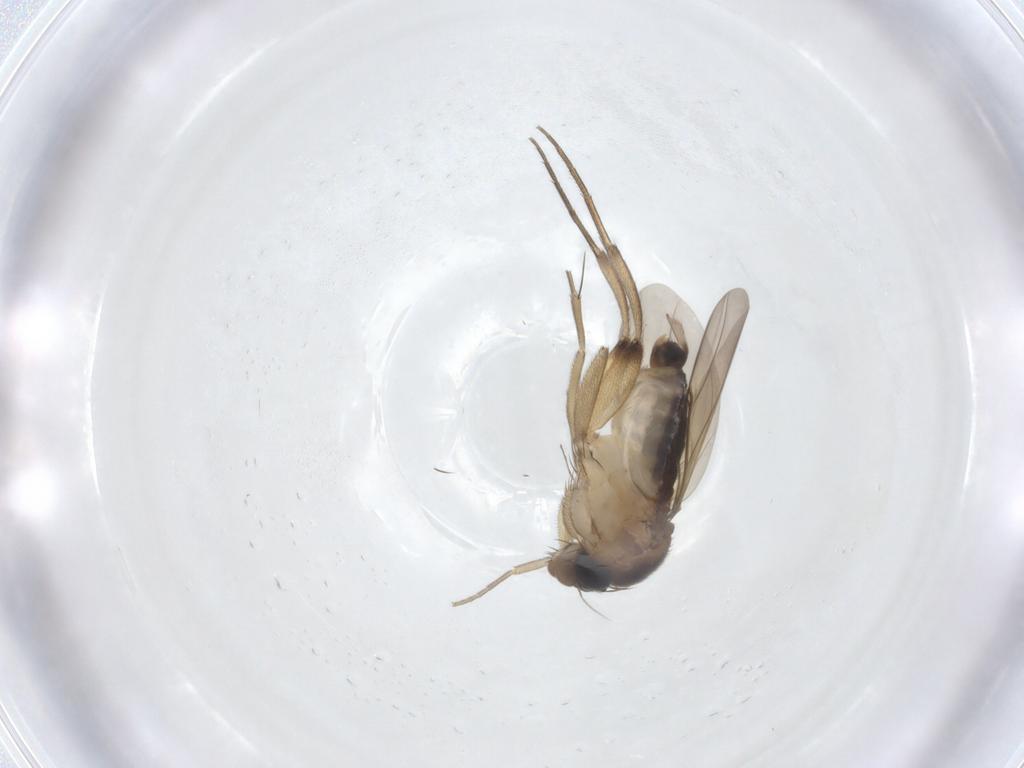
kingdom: Animalia
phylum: Arthropoda
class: Insecta
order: Diptera
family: Phoridae
